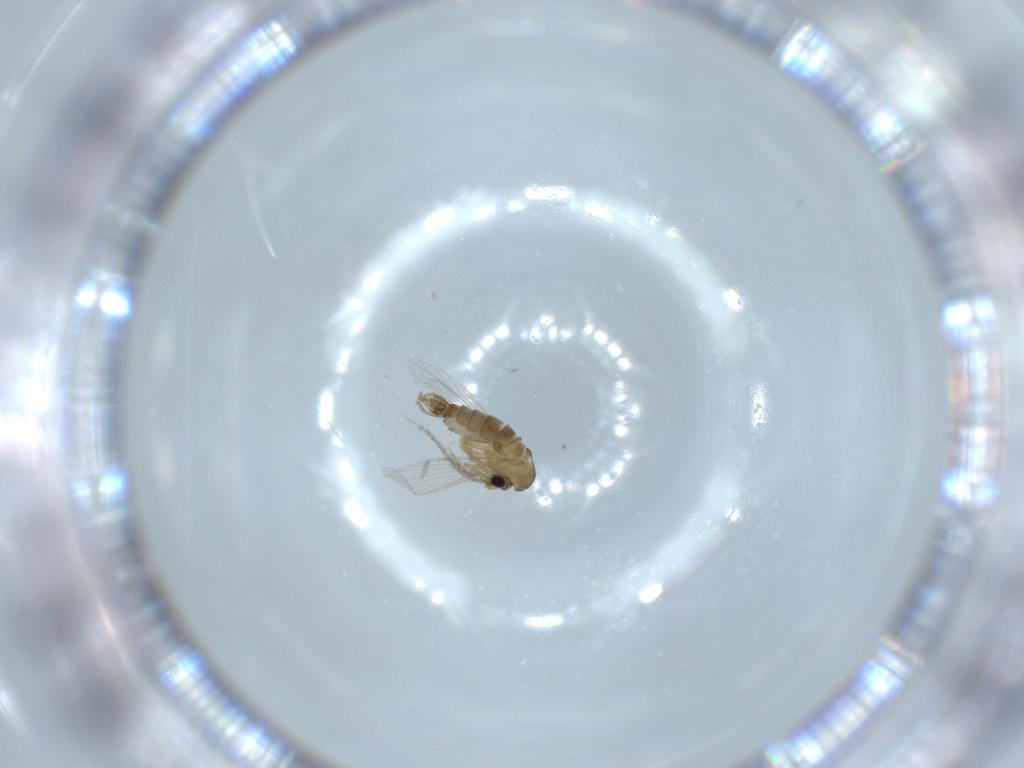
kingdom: Animalia
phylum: Arthropoda
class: Insecta
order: Diptera
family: Psychodidae
